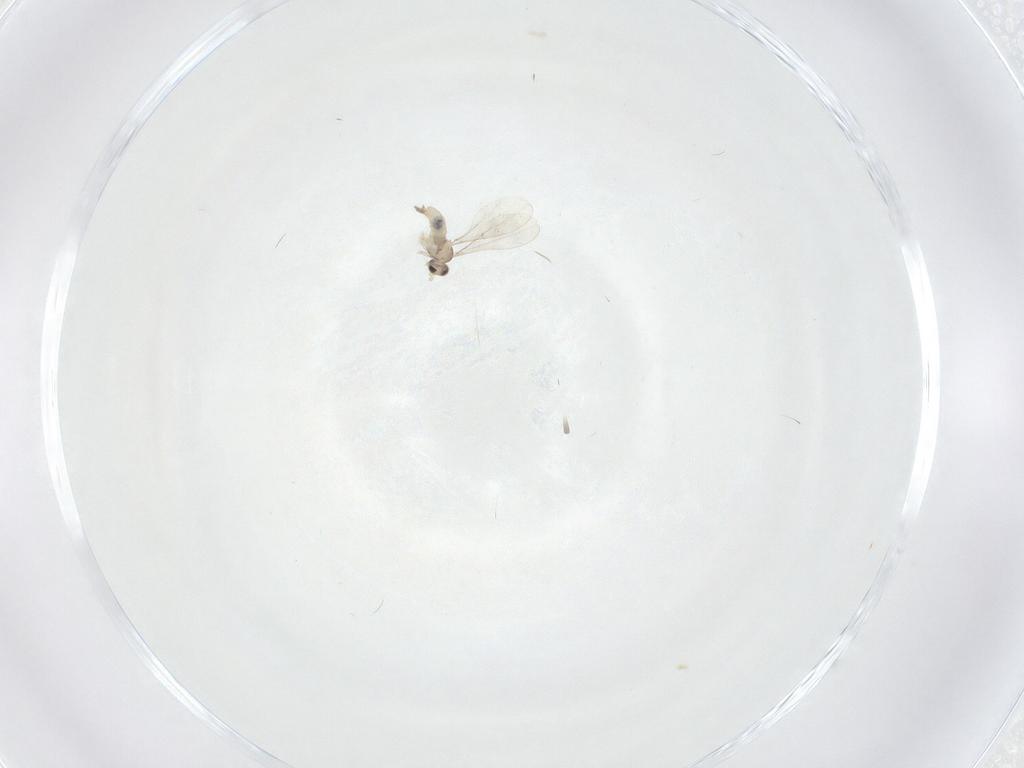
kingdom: Animalia
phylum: Arthropoda
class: Insecta
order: Diptera
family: Cecidomyiidae
